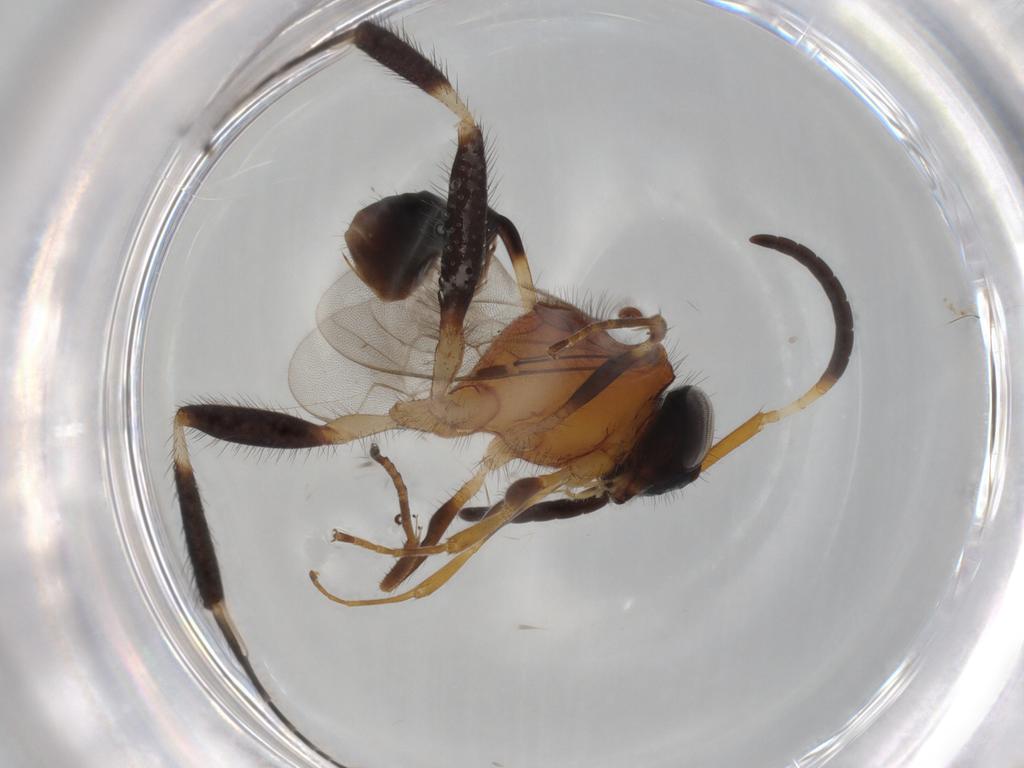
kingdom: Animalia
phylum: Arthropoda
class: Insecta
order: Hymenoptera
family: Evaniidae
